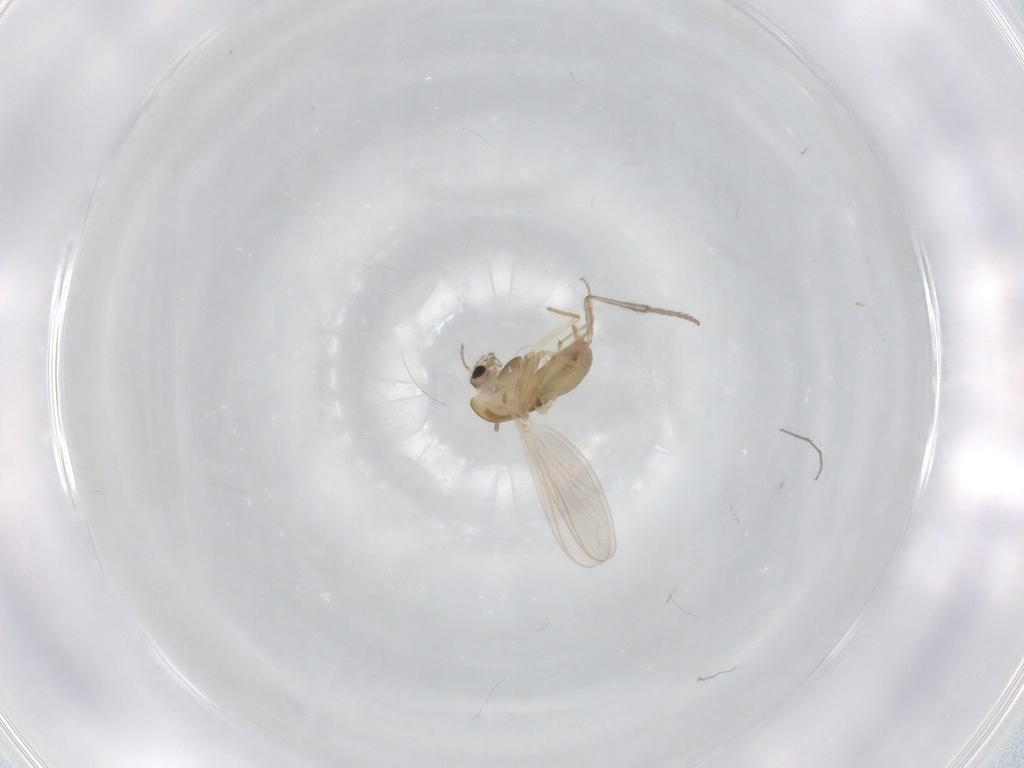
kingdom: Animalia
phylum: Arthropoda
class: Insecta
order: Diptera
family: Chironomidae
